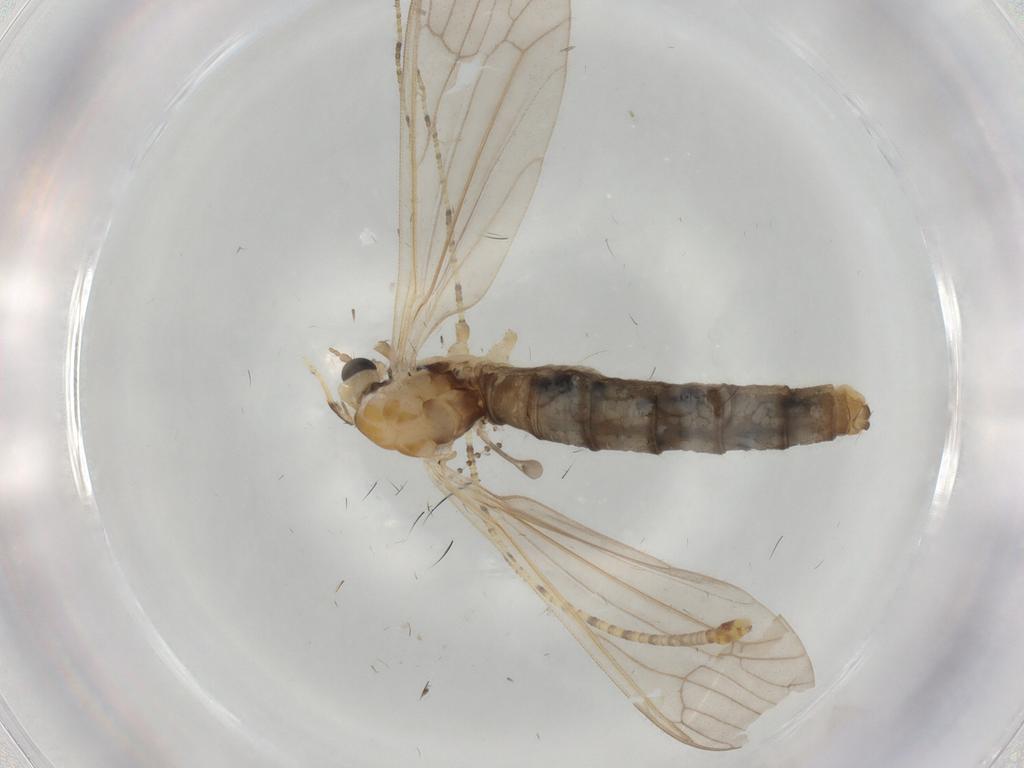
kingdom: Animalia
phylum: Arthropoda
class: Insecta
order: Diptera
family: Limoniidae
